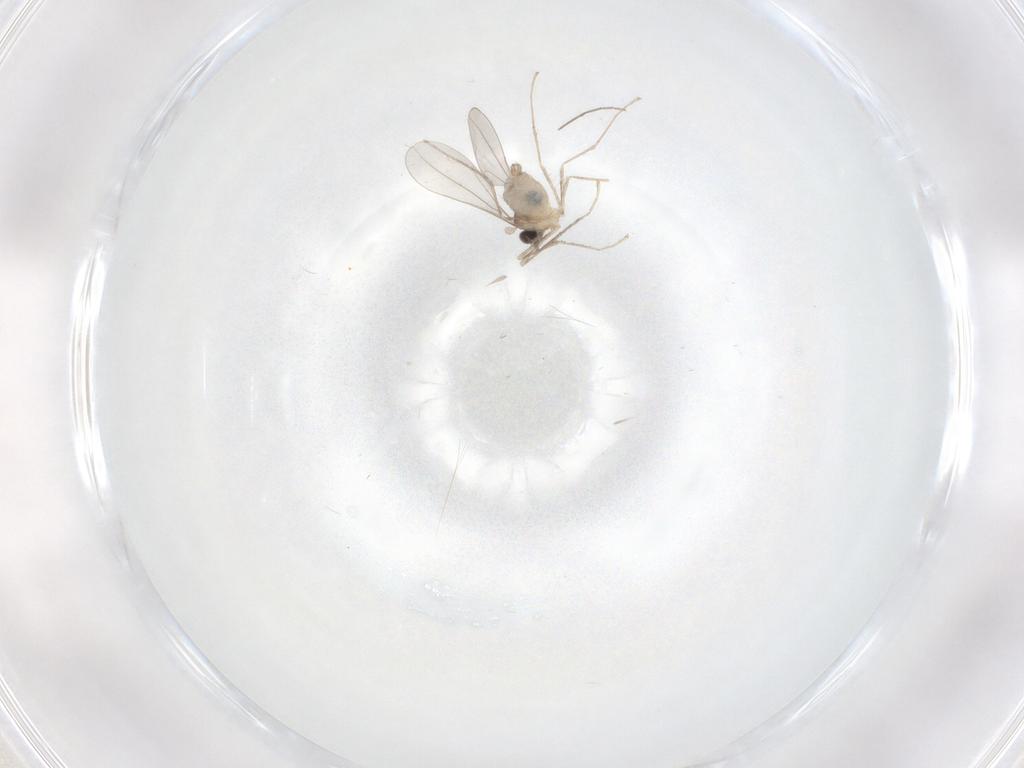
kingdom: Animalia
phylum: Arthropoda
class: Insecta
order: Diptera
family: Cecidomyiidae
